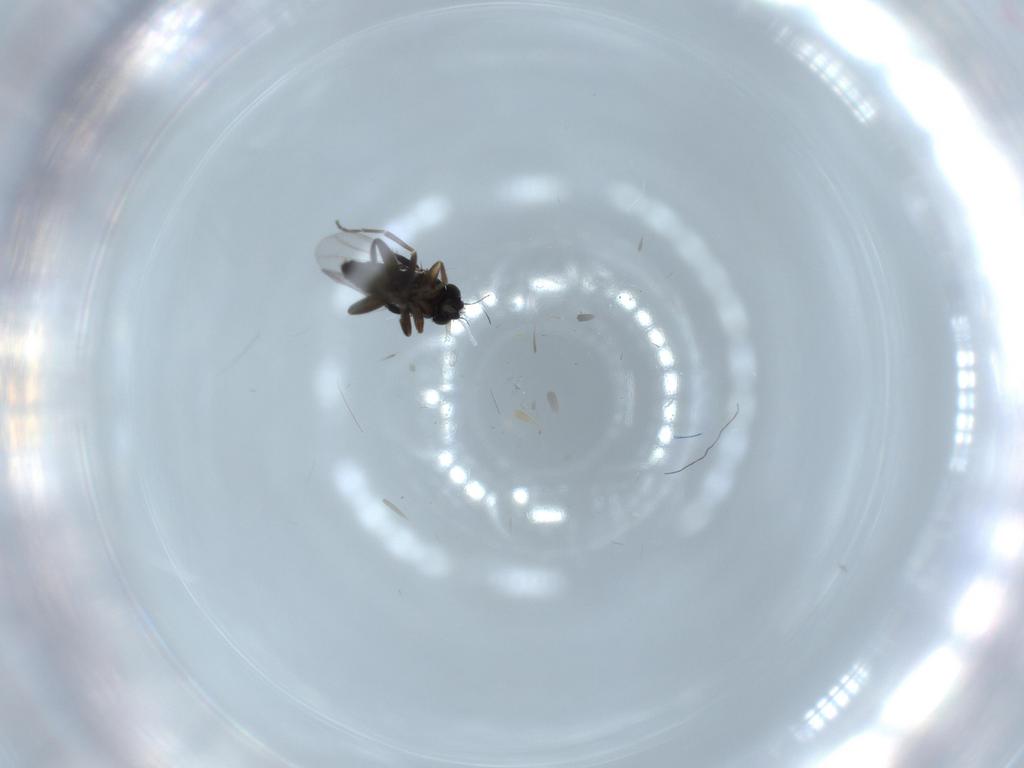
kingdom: Animalia
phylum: Arthropoda
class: Insecta
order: Diptera
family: Phoridae
